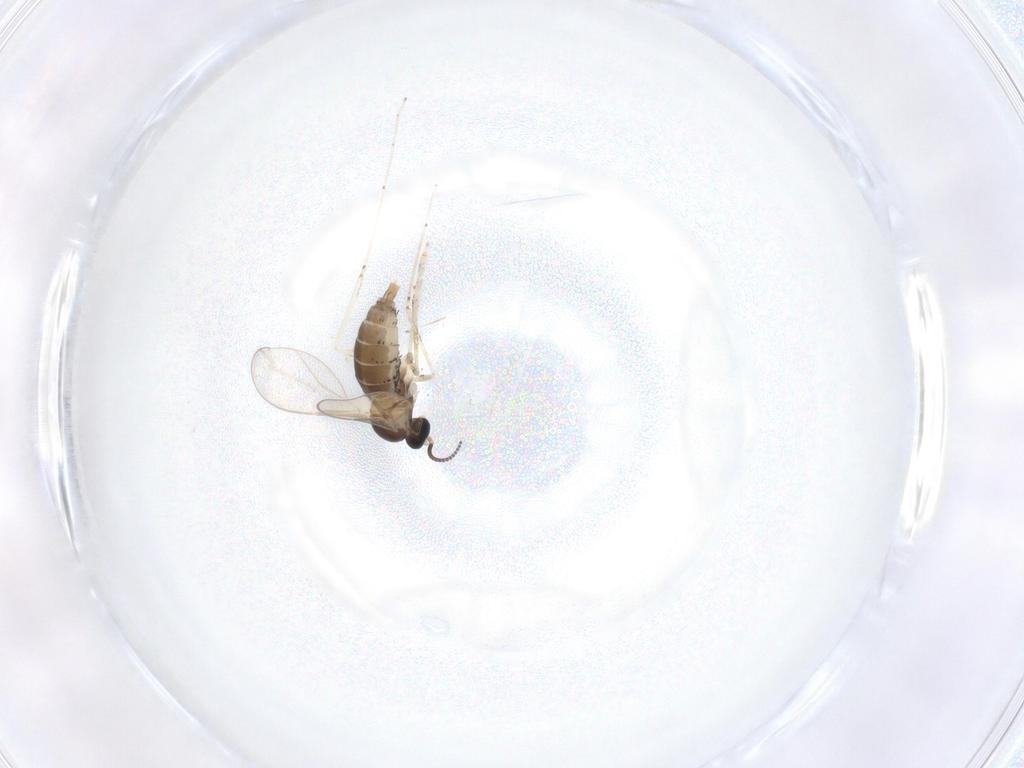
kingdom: Animalia
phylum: Arthropoda
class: Insecta
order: Diptera
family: Cecidomyiidae
